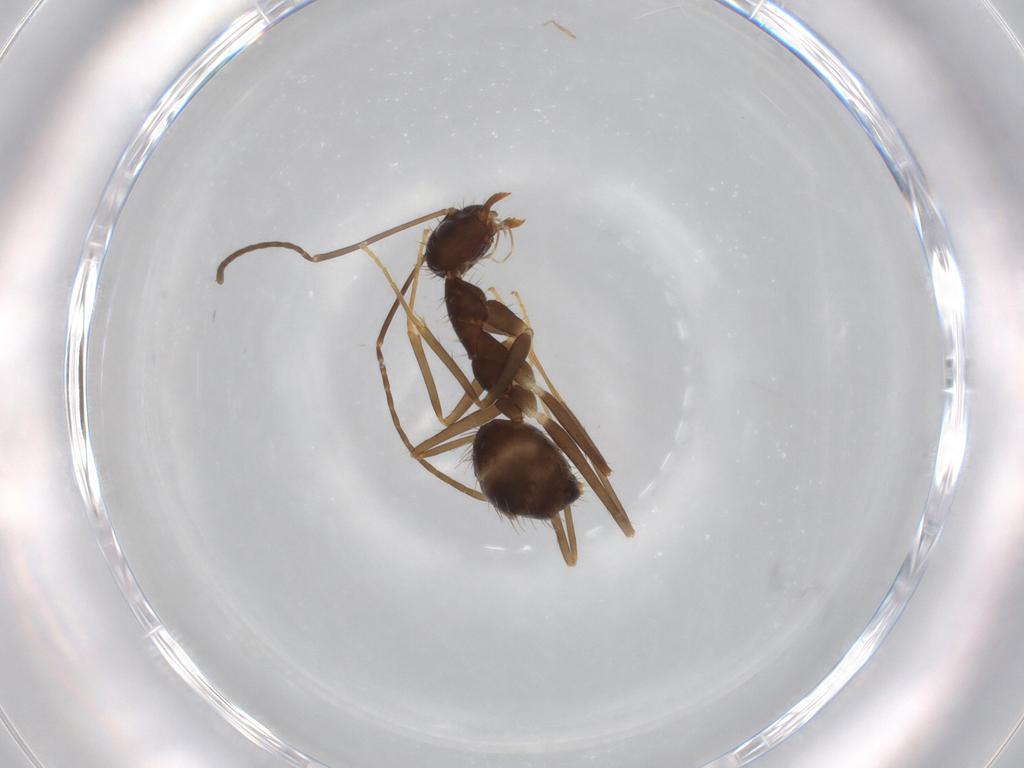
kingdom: Animalia
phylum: Arthropoda
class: Insecta
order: Hymenoptera
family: Formicidae
